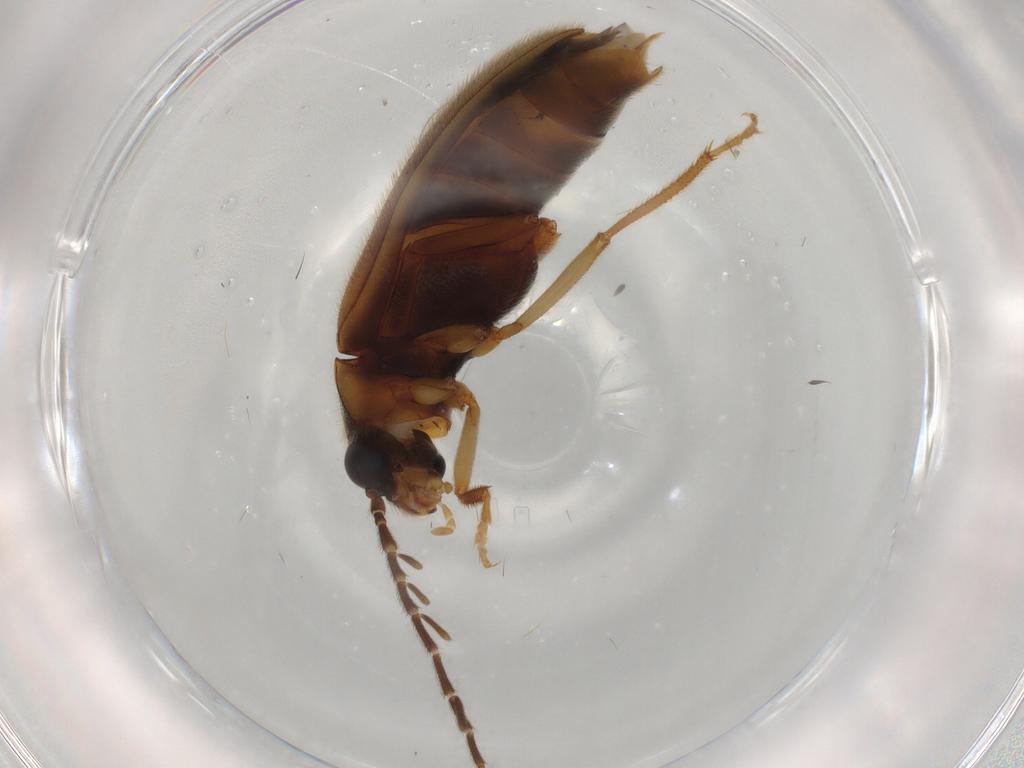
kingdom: Animalia
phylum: Arthropoda
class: Insecta
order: Coleoptera
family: Ptilodactylidae
